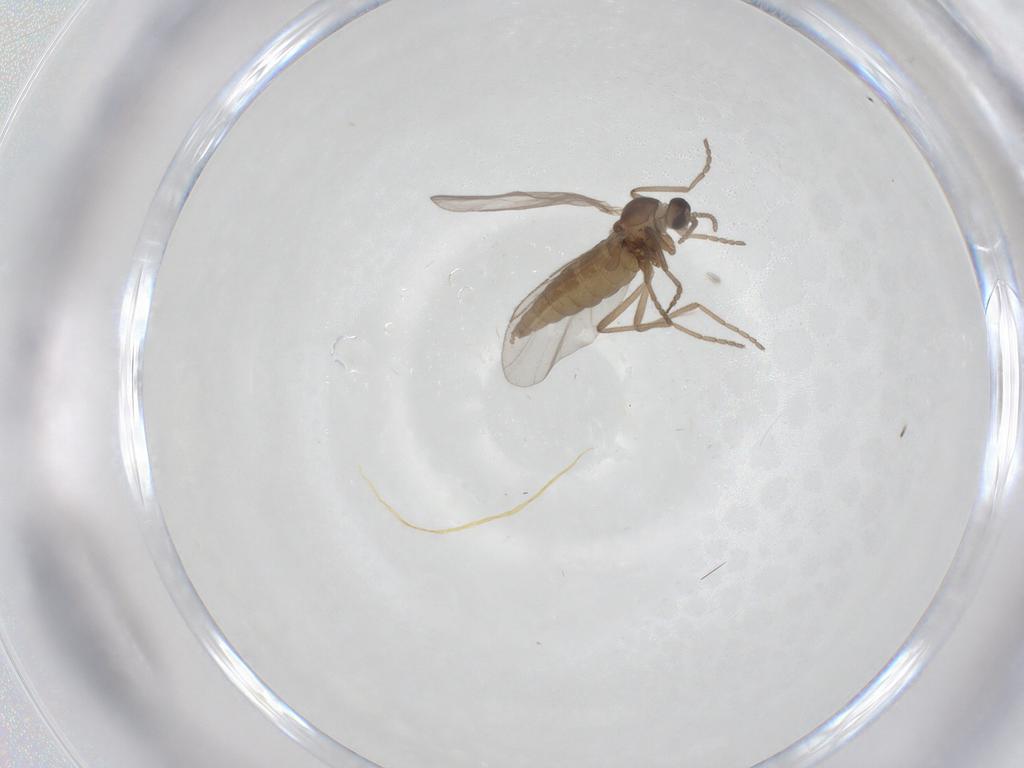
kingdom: Animalia
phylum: Arthropoda
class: Insecta
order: Diptera
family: Cecidomyiidae
